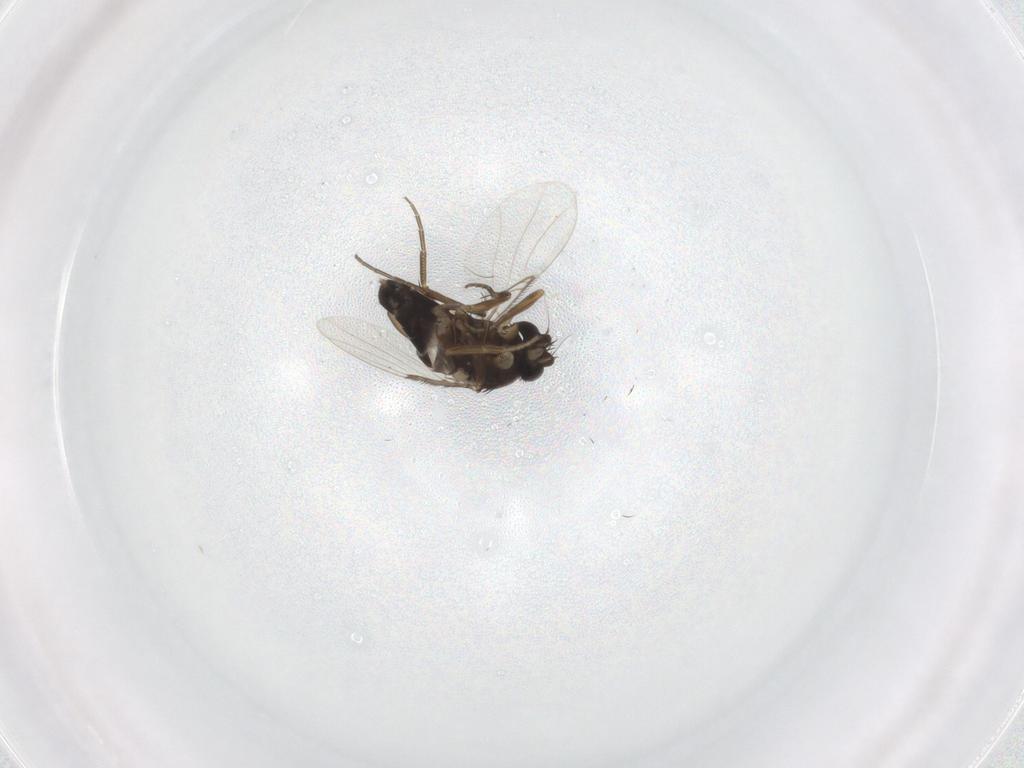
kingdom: Animalia
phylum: Arthropoda
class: Insecta
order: Diptera
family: Phoridae
